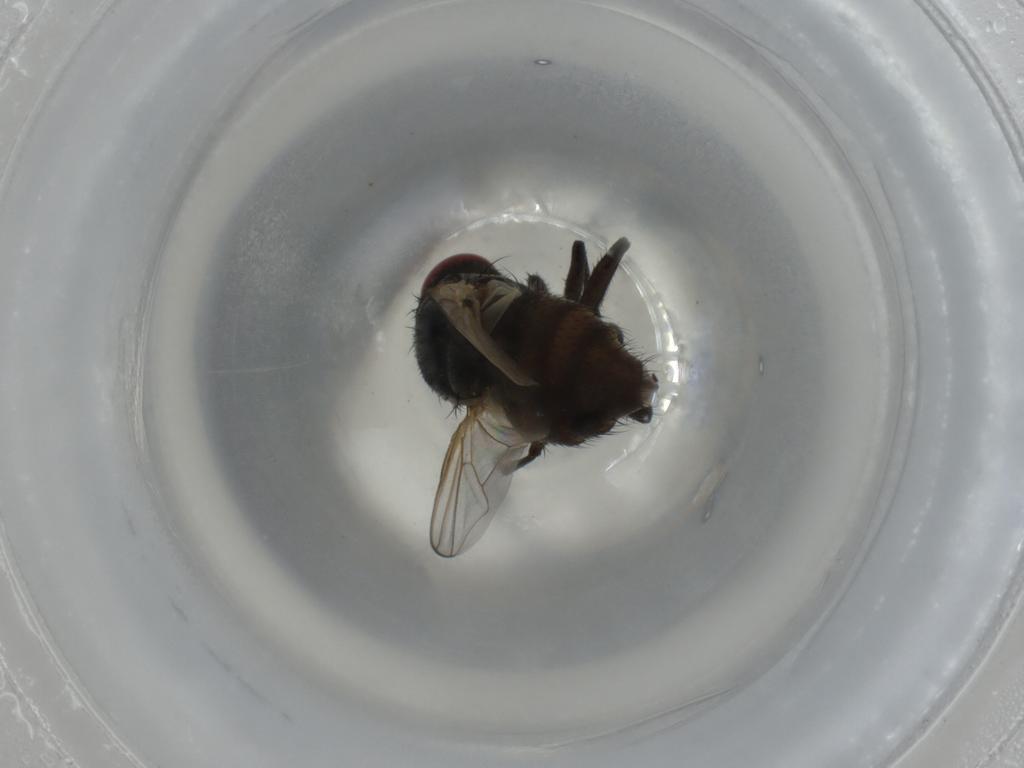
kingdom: Animalia
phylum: Arthropoda
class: Insecta
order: Diptera
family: Muscidae
